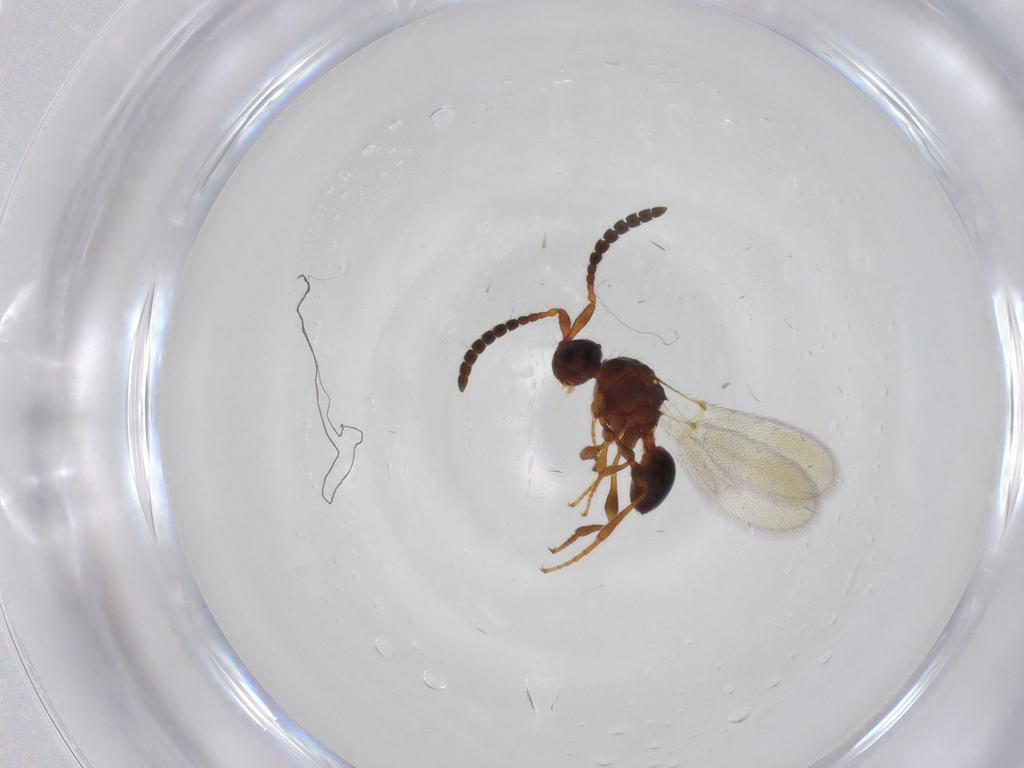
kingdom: Animalia
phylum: Arthropoda
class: Insecta
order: Hymenoptera
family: Diapriidae
